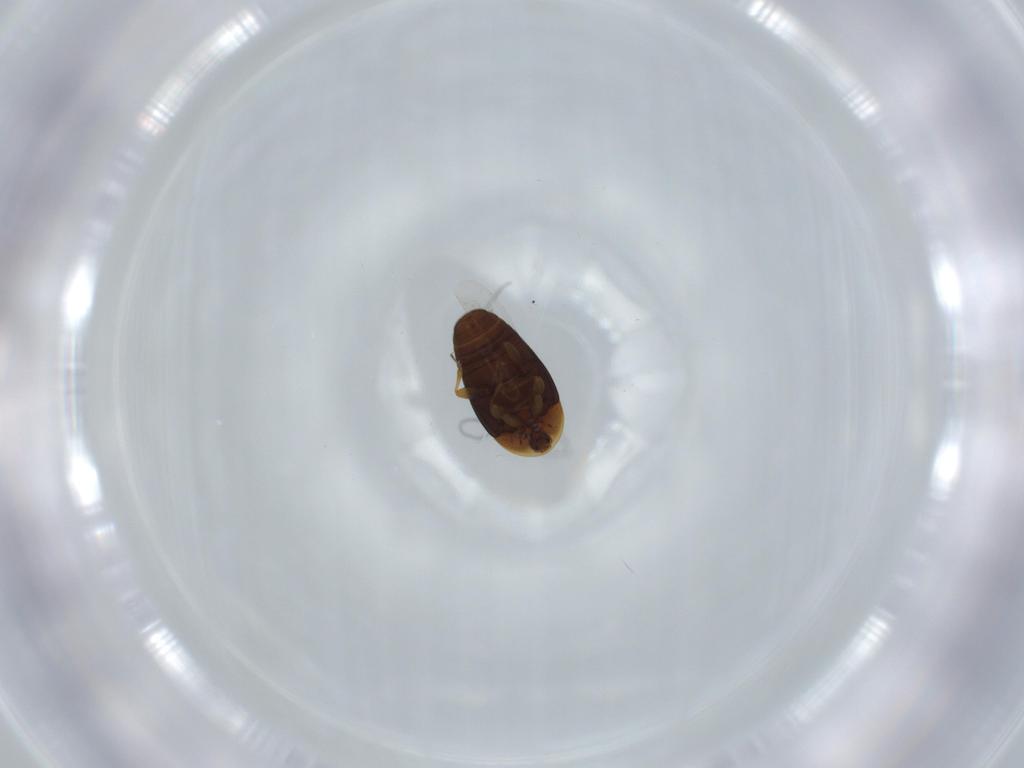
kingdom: Animalia
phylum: Arthropoda
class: Insecta
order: Coleoptera
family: Corylophidae
